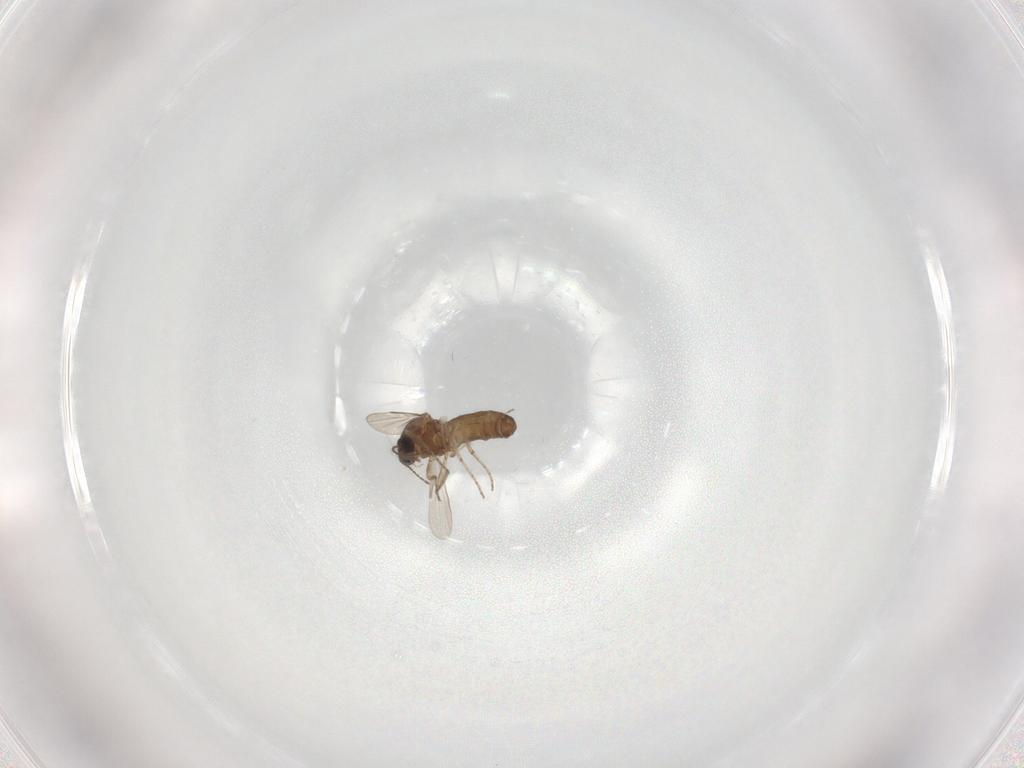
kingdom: Animalia
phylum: Arthropoda
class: Insecta
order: Diptera
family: Ceratopogonidae
